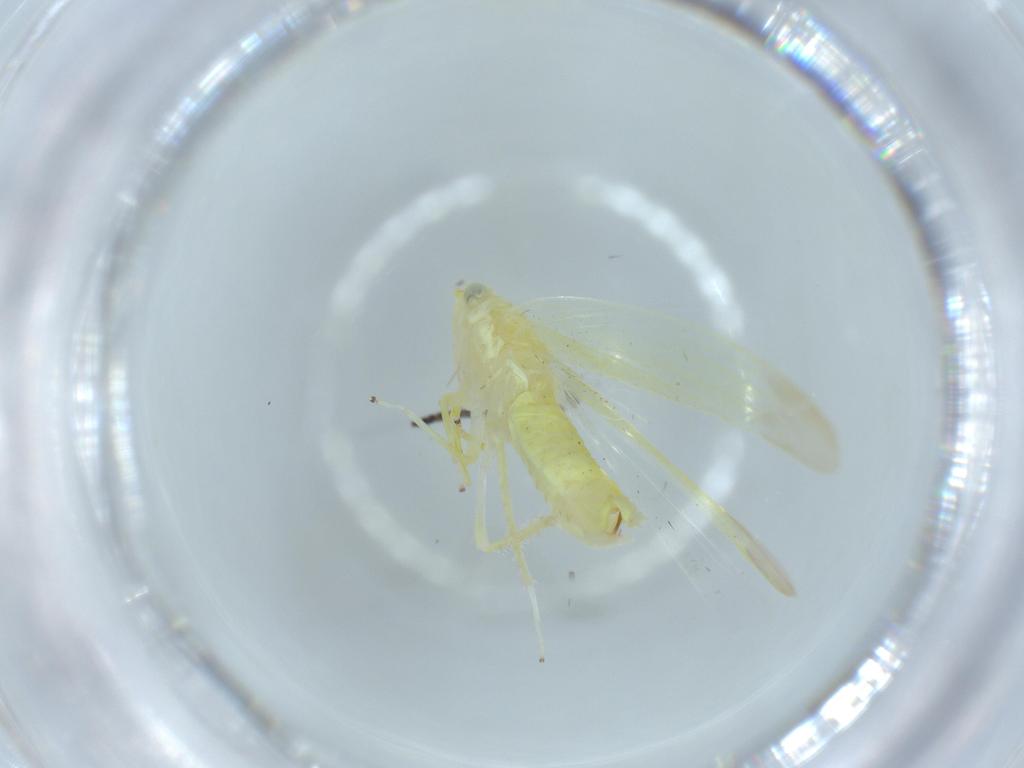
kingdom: Animalia
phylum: Arthropoda
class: Insecta
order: Hemiptera
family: Cicadellidae
